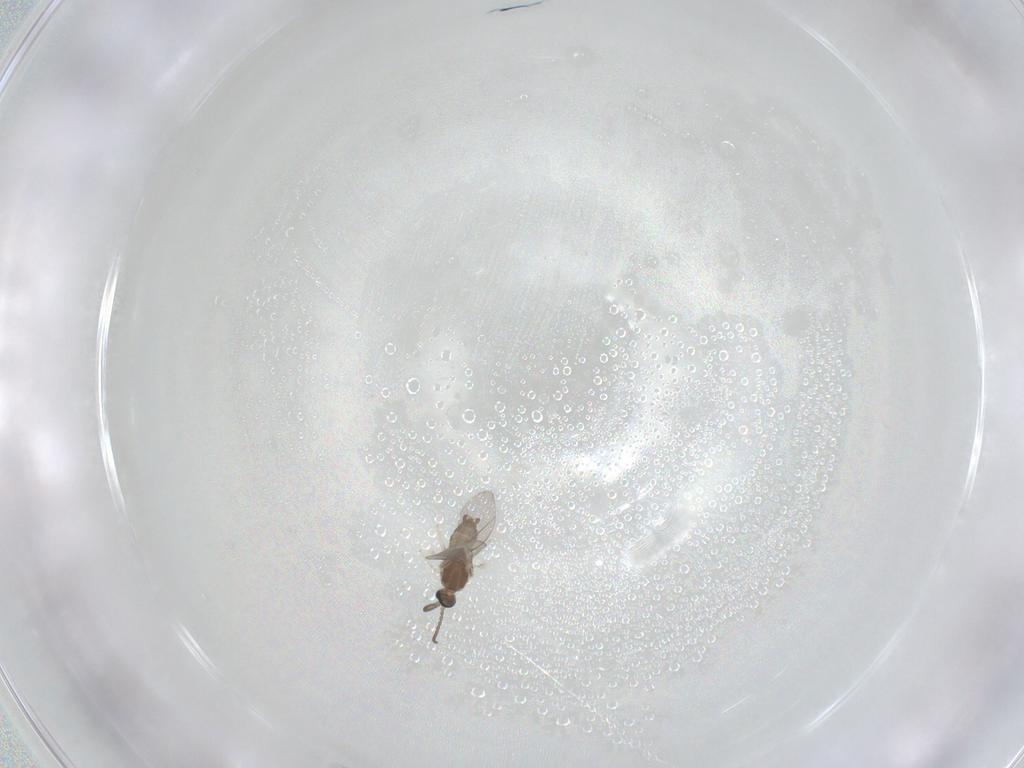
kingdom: Animalia
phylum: Arthropoda
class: Insecta
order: Diptera
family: Cecidomyiidae
